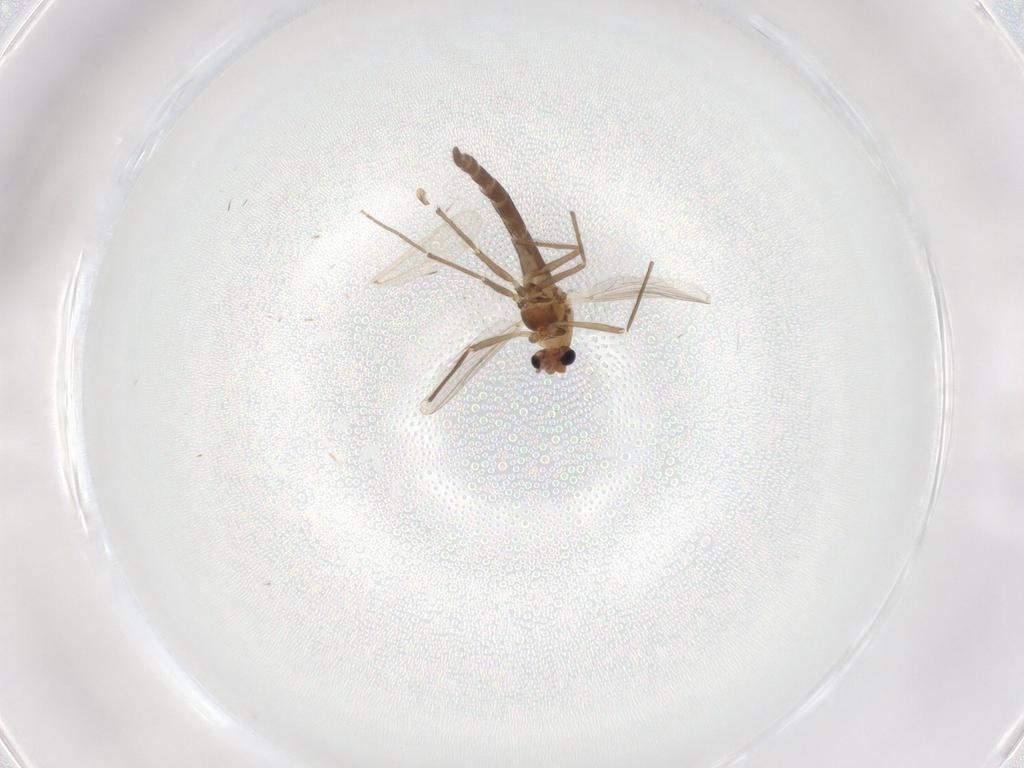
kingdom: Animalia
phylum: Arthropoda
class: Insecta
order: Diptera
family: Chironomidae
